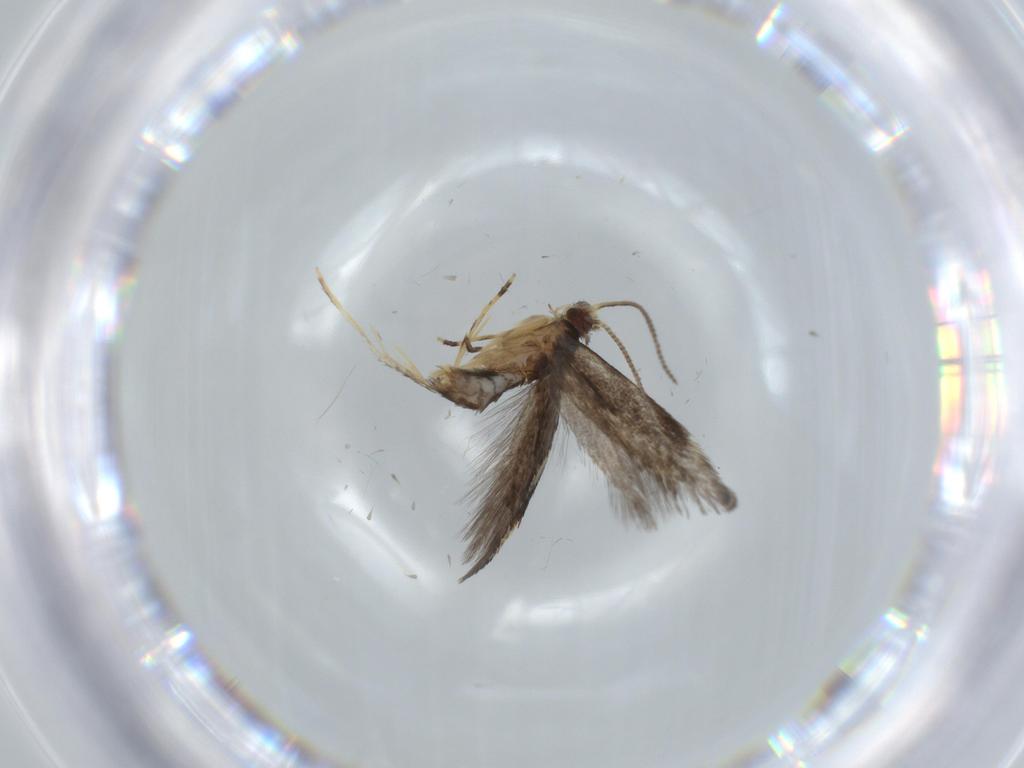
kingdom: Animalia
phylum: Arthropoda
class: Insecta
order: Lepidoptera
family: Tineidae
